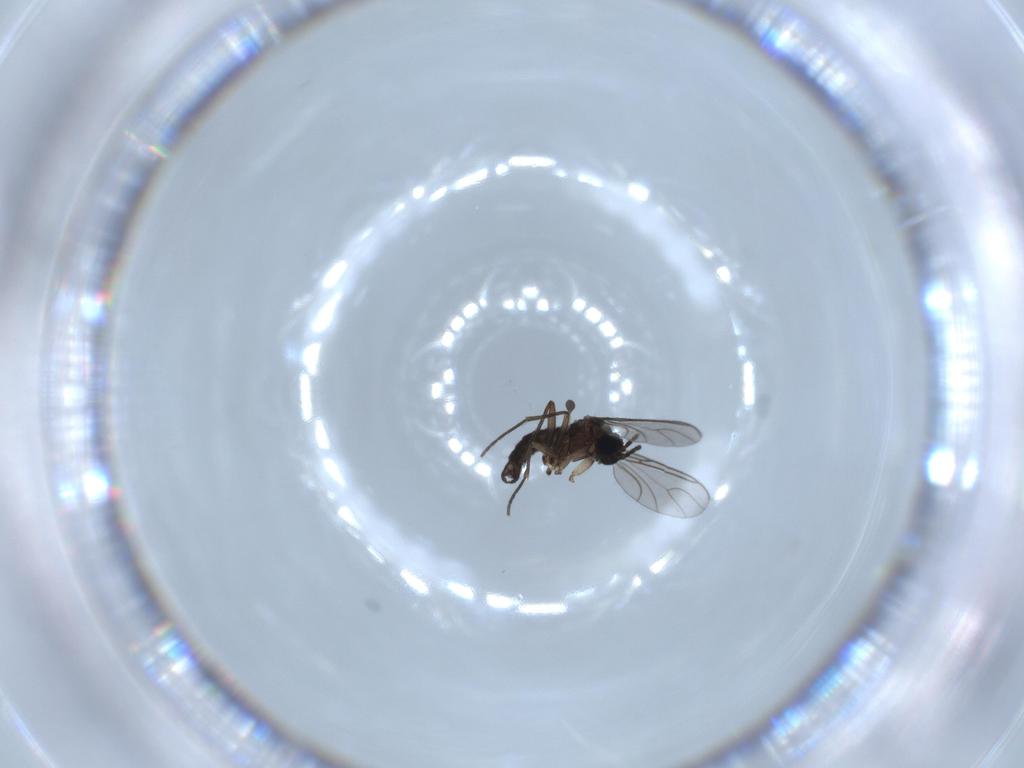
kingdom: Animalia
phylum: Arthropoda
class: Insecta
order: Diptera
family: Sciaridae
